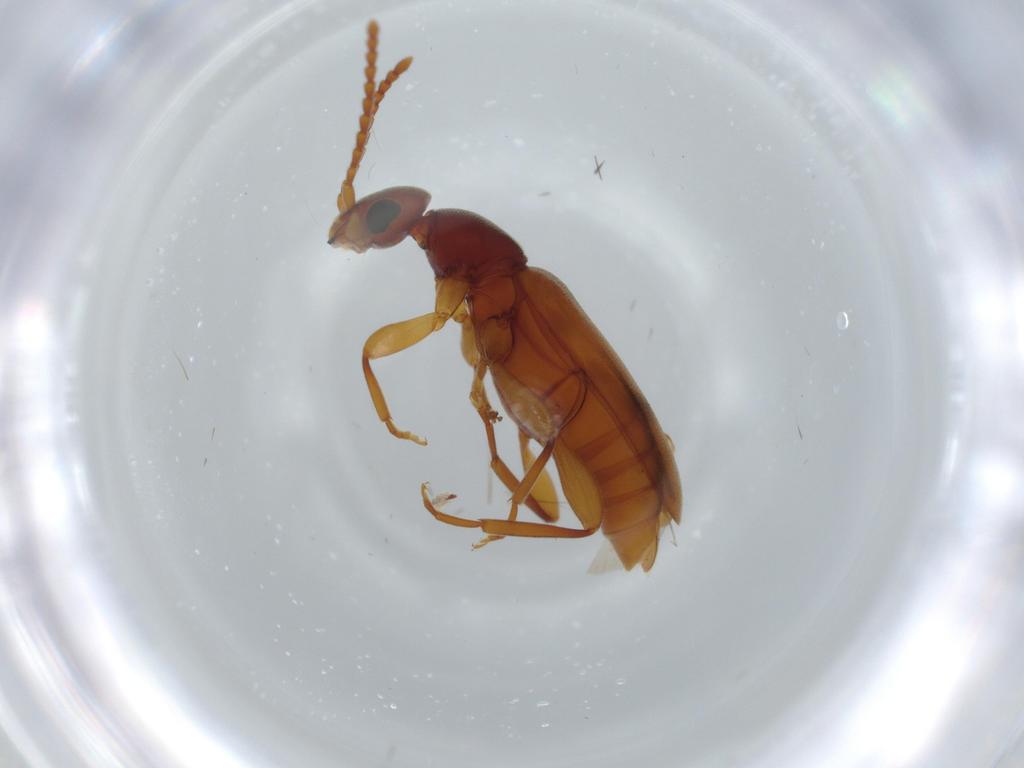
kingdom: Animalia
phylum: Arthropoda
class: Insecta
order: Coleoptera
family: Anthicidae
